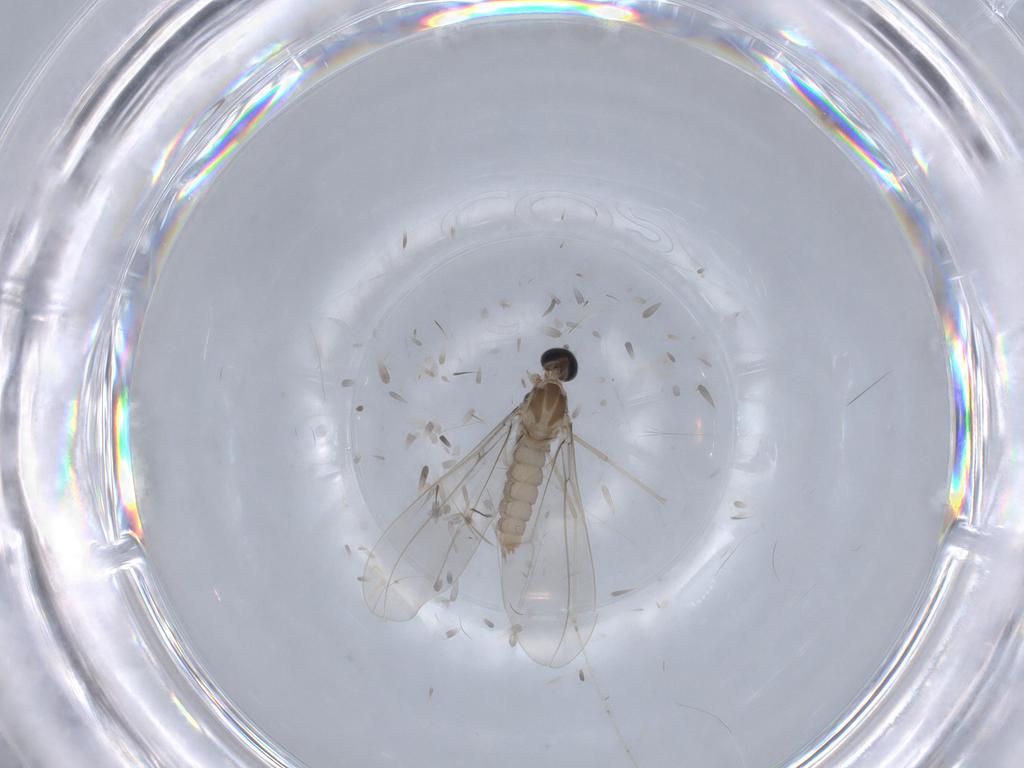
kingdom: Animalia
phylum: Arthropoda
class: Insecta
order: Diptera
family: Cecidomyiidae
